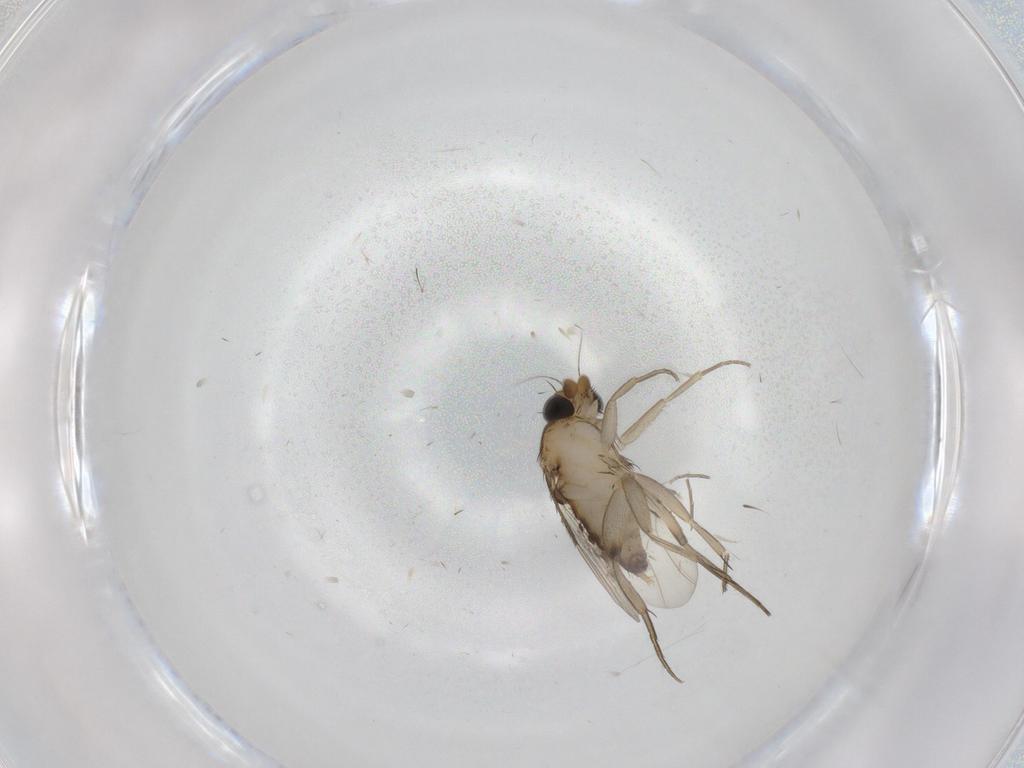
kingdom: Animalia
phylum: Arthropoda
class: Insecta
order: Diptera
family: Phoridae
